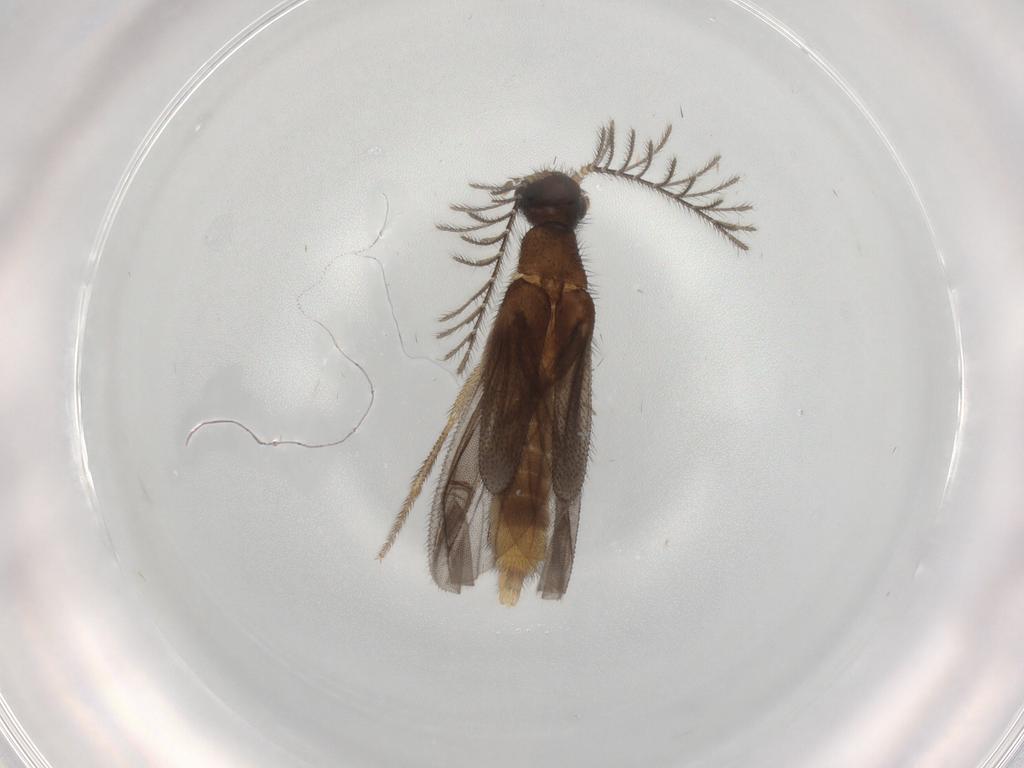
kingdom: Animalia
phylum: Arthropoda
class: Insecta
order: Coleoptera
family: Phengodidae
